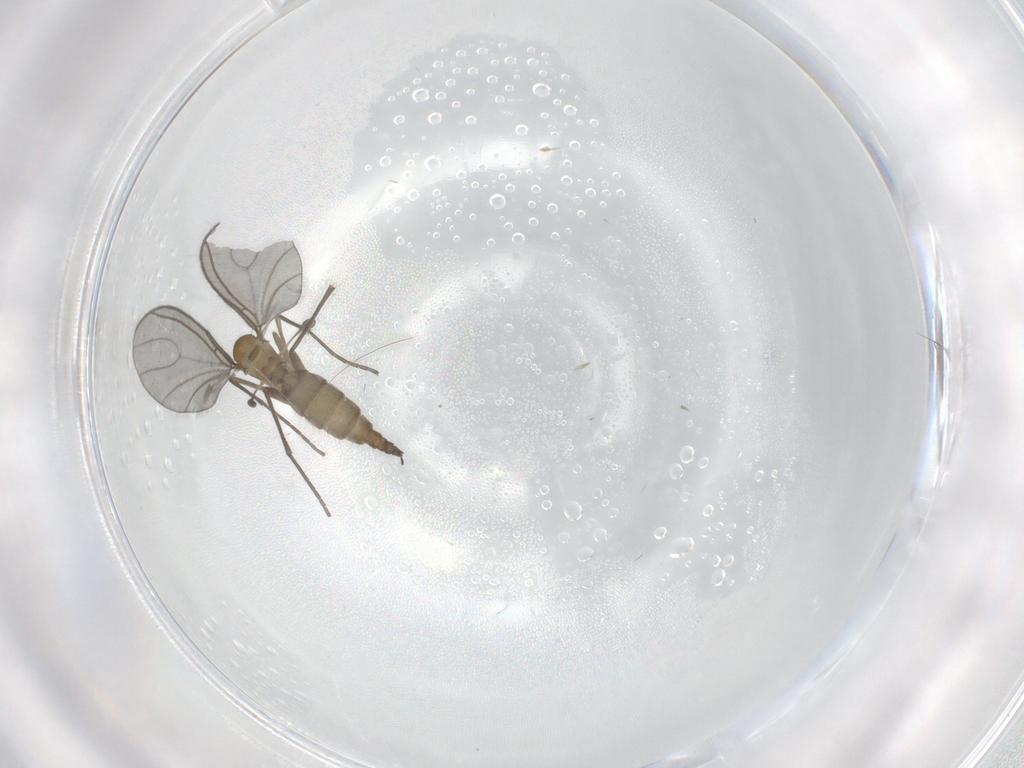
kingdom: Animalia
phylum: Arthropoda
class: Insecta
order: Diptera
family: Sciaridae
